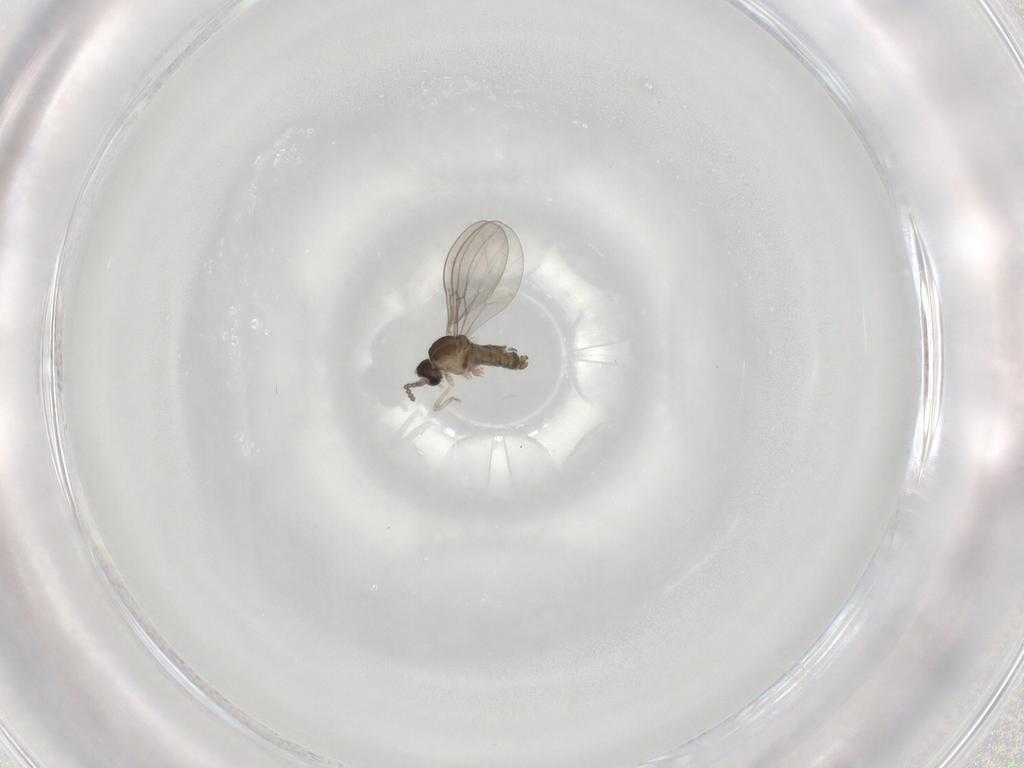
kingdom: Animalia
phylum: Arthropoda
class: Insecta
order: Diptera
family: Cecidomyiidae
